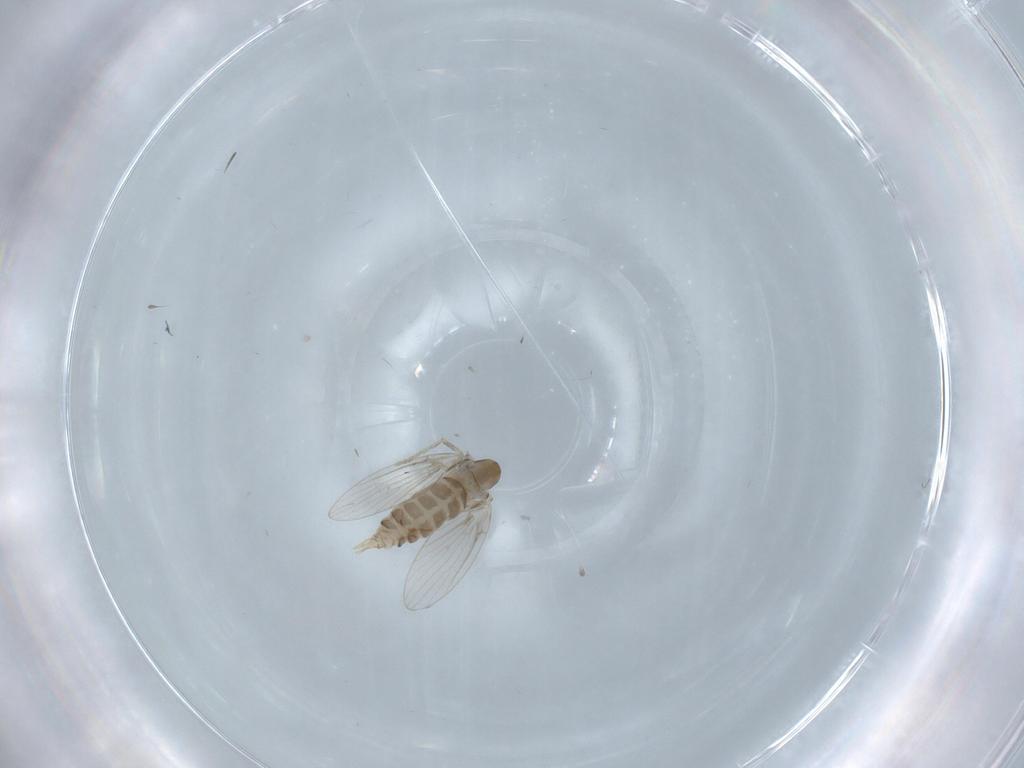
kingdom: Animalia
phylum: Arthropoda
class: Insecta
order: Diptera
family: Psychodidae
